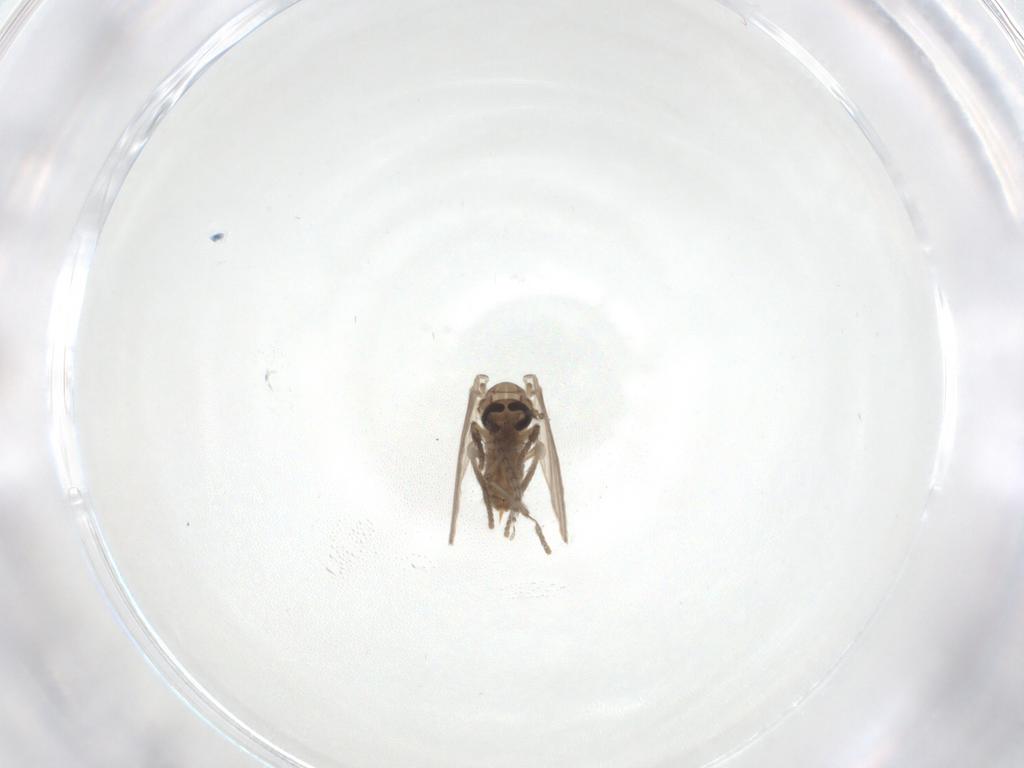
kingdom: Animalia
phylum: Arthropoda
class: Insecta
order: Diptera
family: Psychodidae
